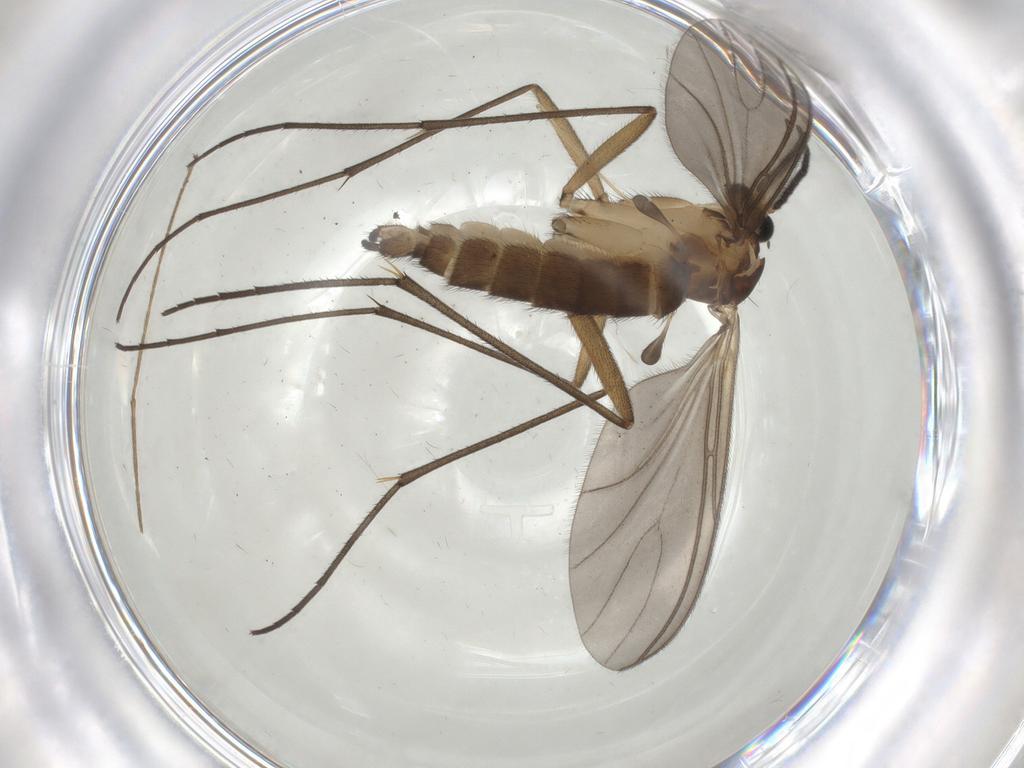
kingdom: Animalia
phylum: Arthropoda
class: Insecta
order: Diptera
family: Sciaridae
